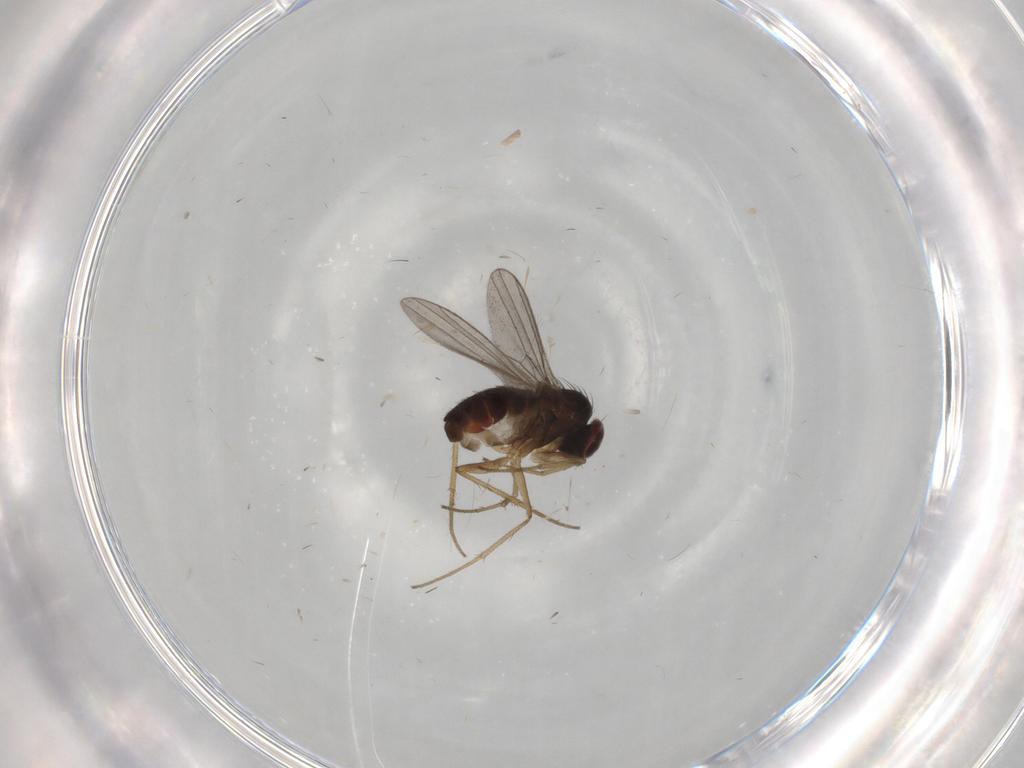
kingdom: Animalia
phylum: Arthropoda
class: Insecta
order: Diptera
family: Dolichopodidae
